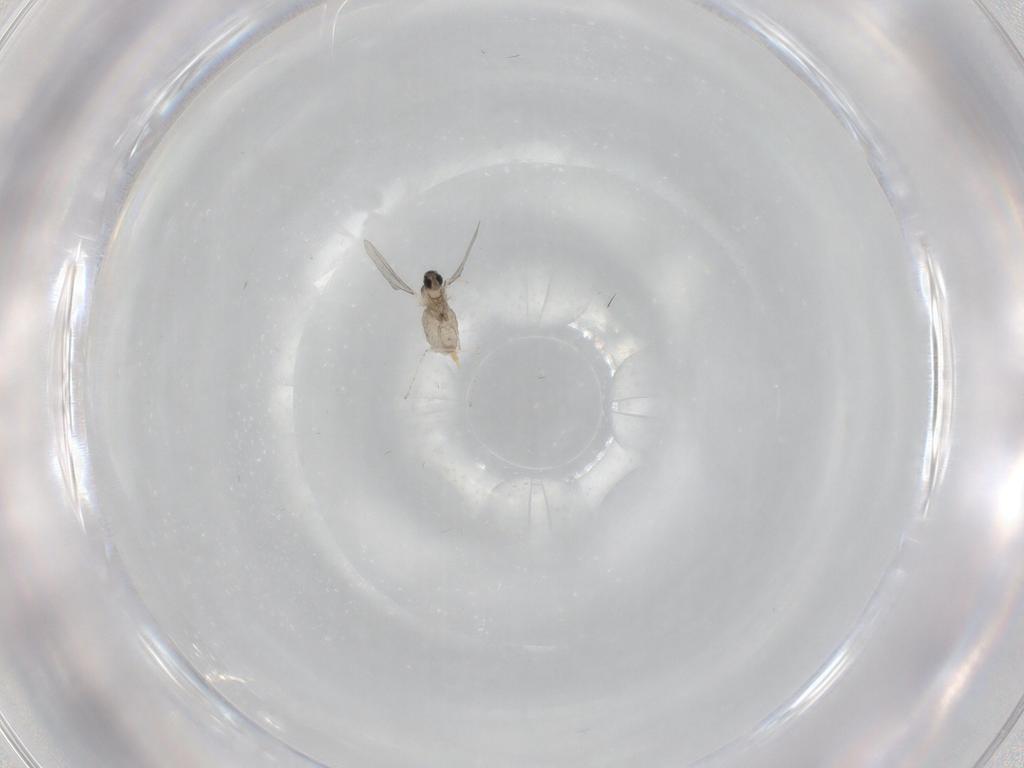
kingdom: Animalia
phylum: Arthropoda
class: Insecta
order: Diptera
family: Cecidomyiidae
